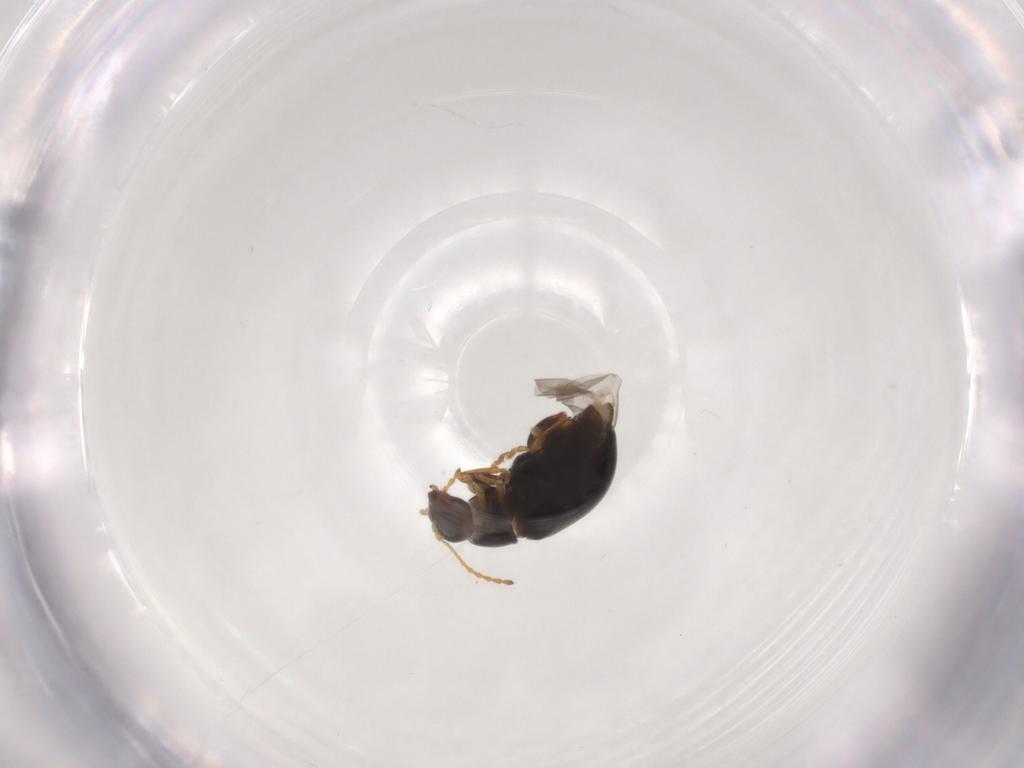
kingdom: Animalia
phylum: Arthropoda
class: Insecta
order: Coleoptera
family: Chrysomelidae
